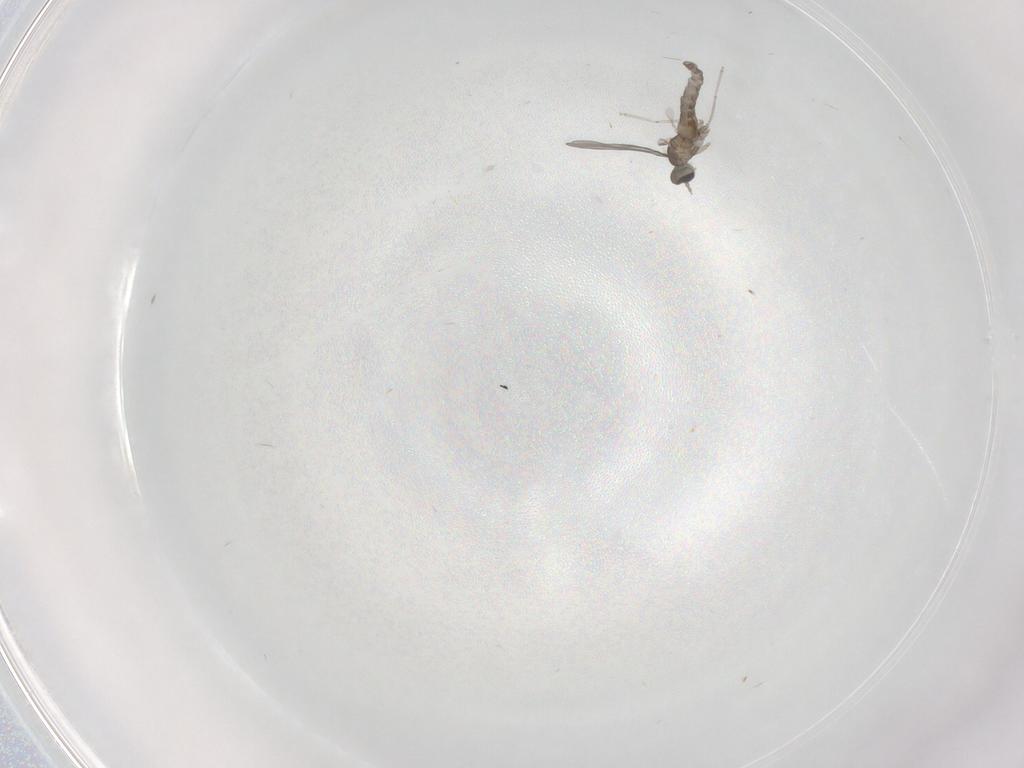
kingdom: Animalia
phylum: Arthropoda
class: Insecta
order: Diptera
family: Cecidomyiidae
